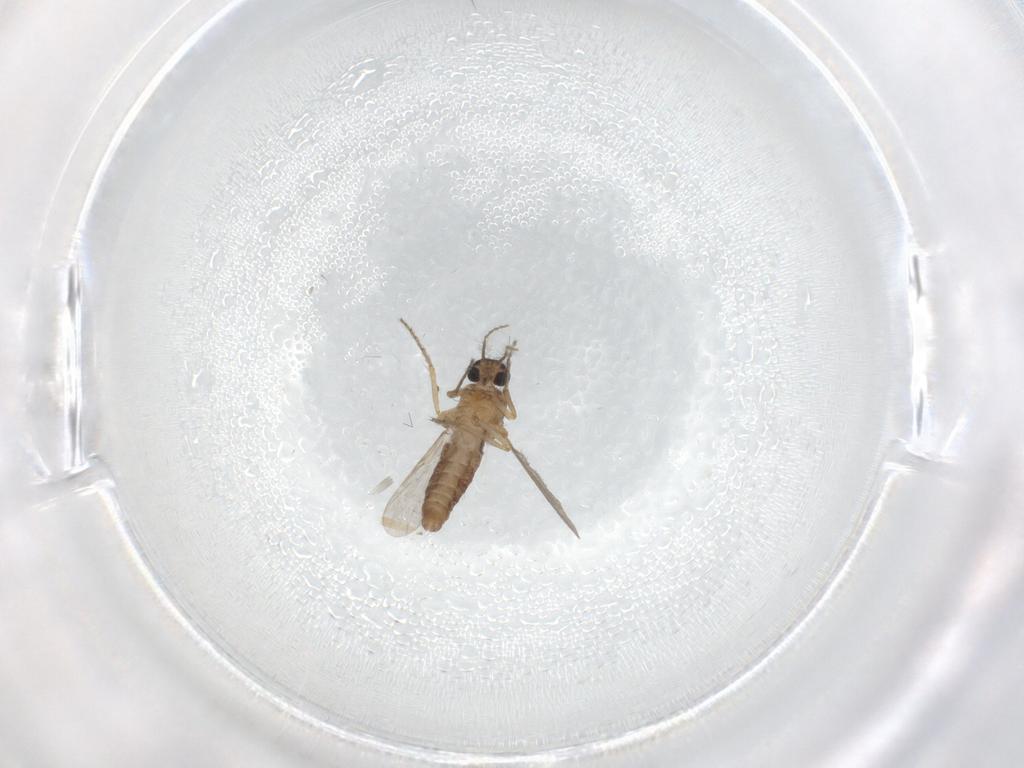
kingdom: Animalia
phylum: Arthropoda
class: Insecta
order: Diptera
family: Ceratopogonidae
